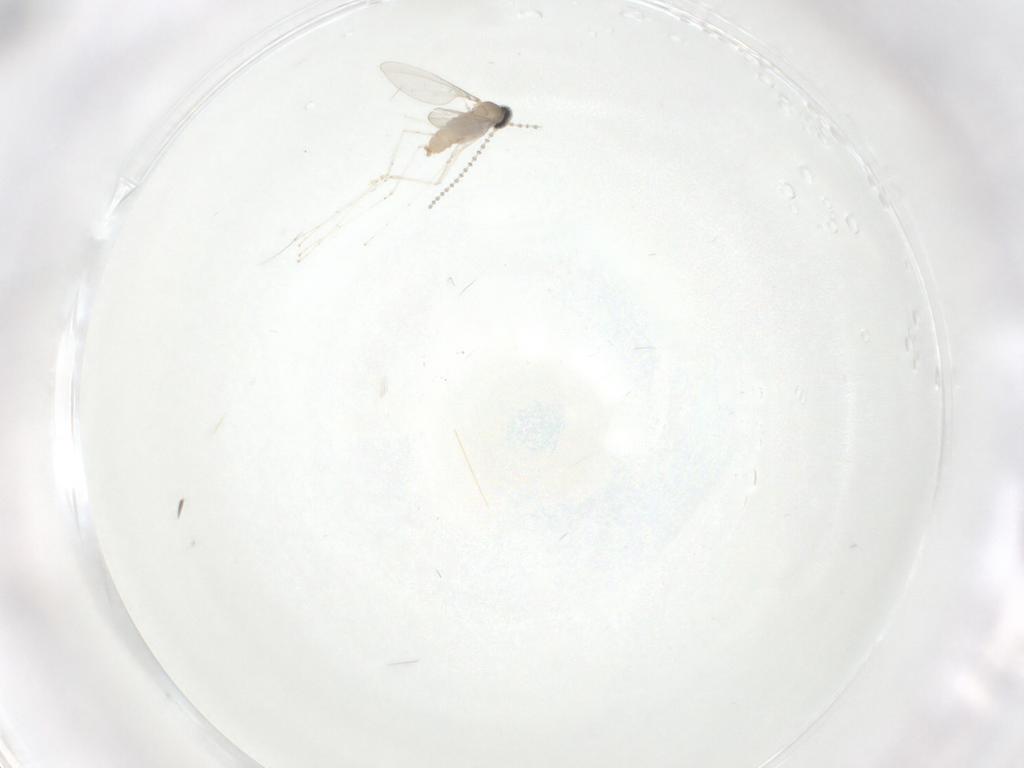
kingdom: Animalia
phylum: Arthropoda
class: Insecta
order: Diptera
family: Cecidomyiidae
